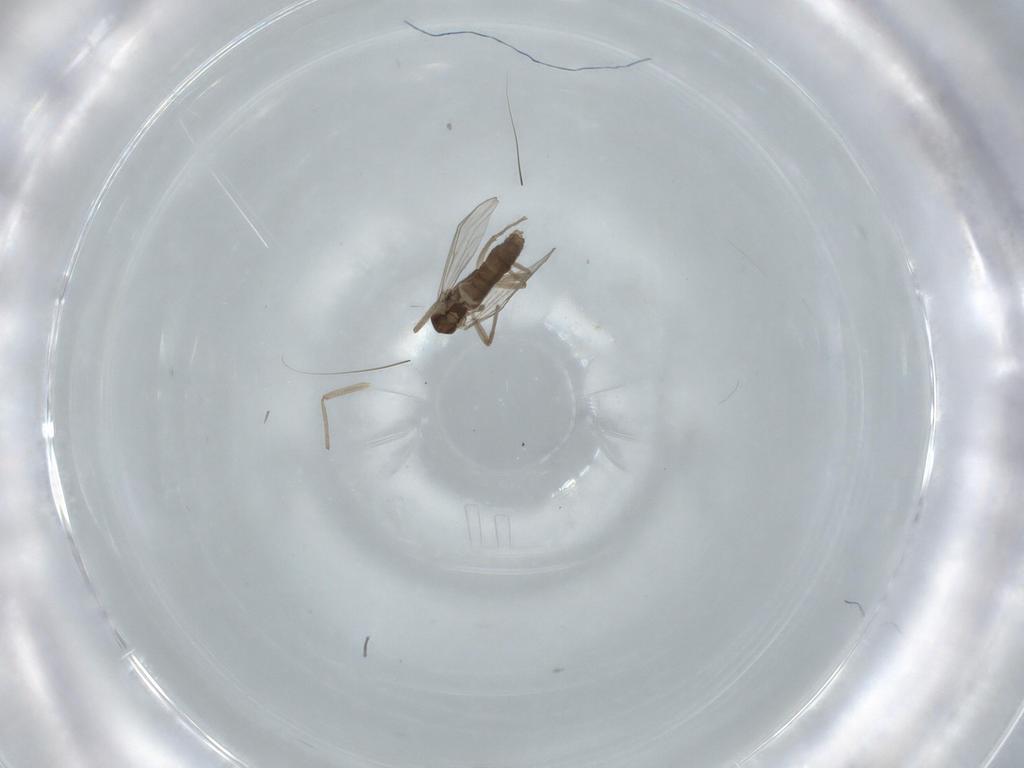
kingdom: Animalia
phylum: Arthropoda
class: Insecta
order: Diptera
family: Chironomidae
